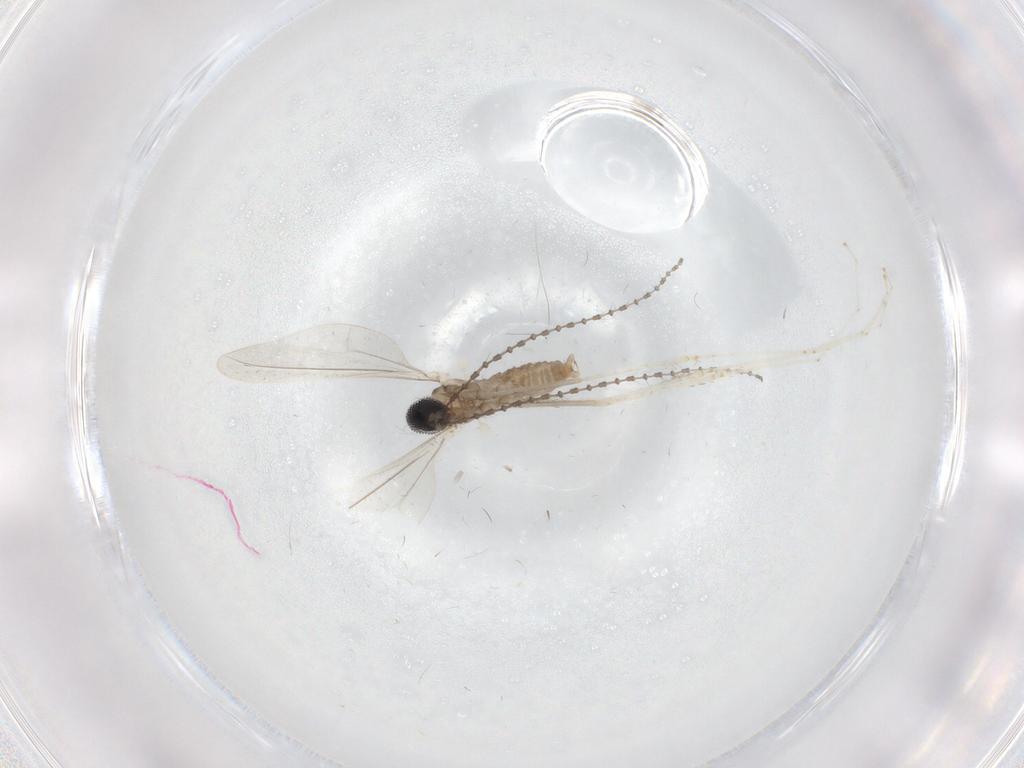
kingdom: Animalia
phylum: Arthropoda
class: Insecta
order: Diptera
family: Cecidomyiidae
